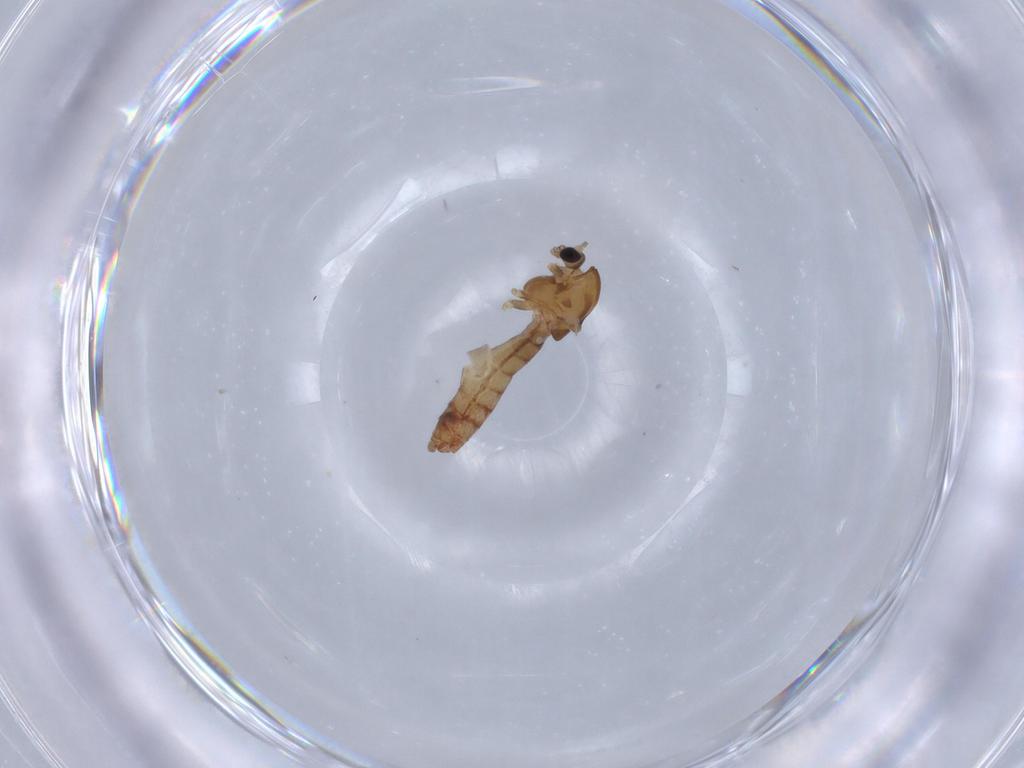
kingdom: Animalia
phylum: Arthropoda
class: Insecta
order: Diptera
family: Chironomidae
